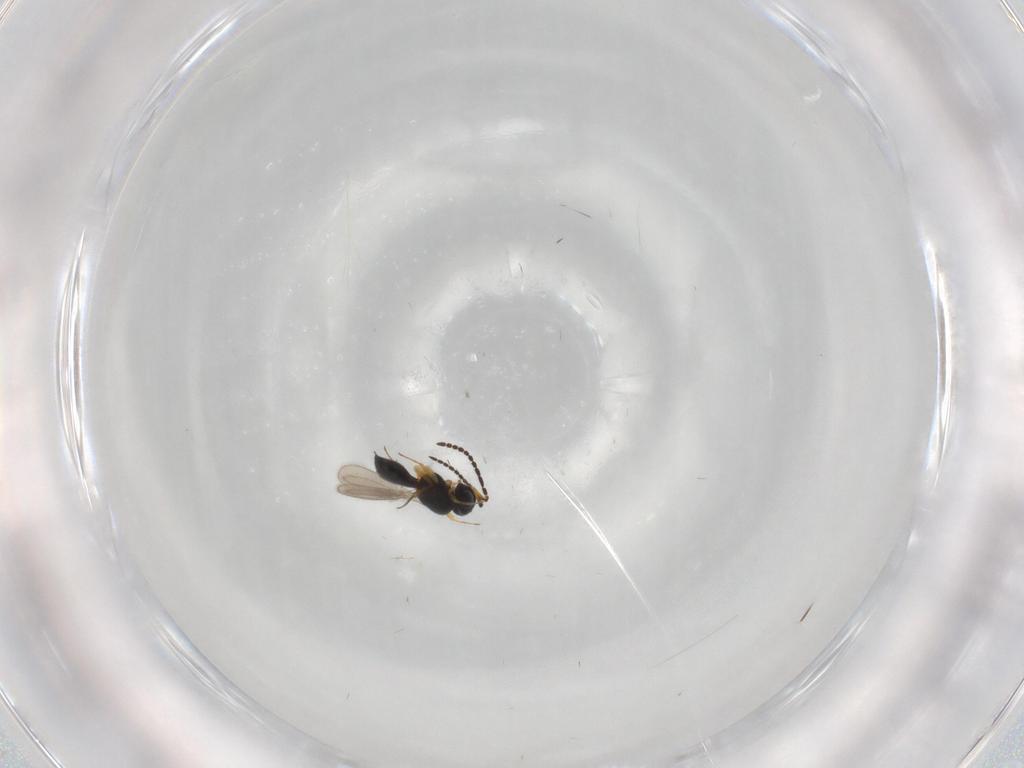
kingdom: Animalia
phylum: Arthropoda
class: Insecta
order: Hymenoptera
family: Scelionidae
